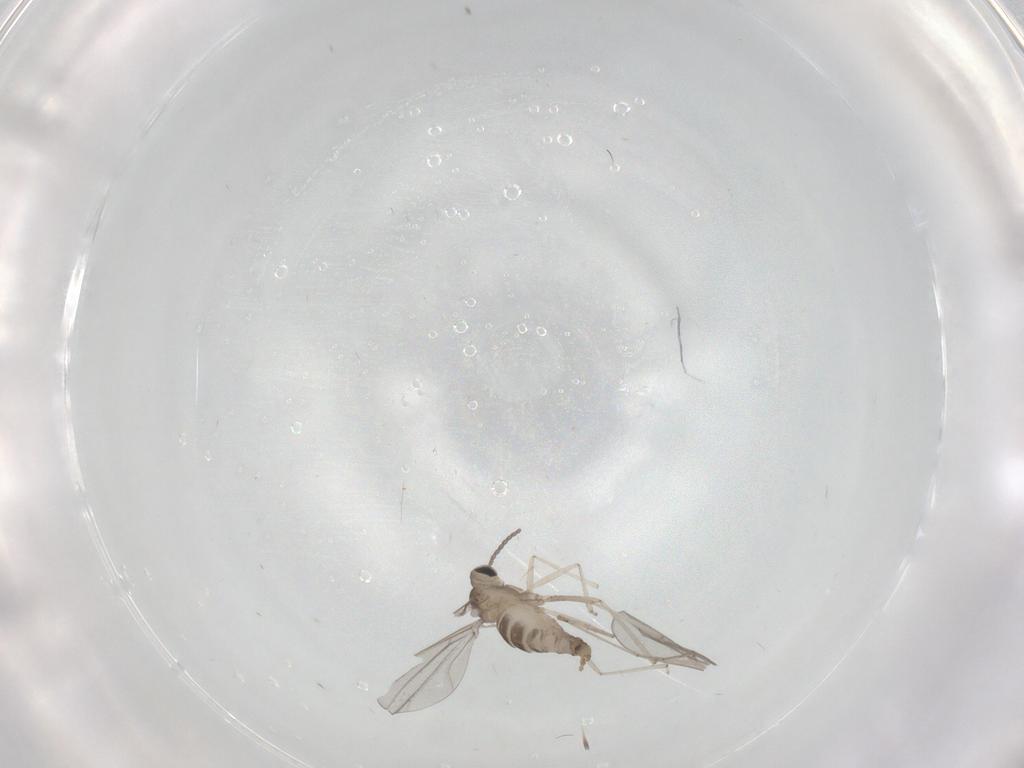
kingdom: Animalia
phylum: Arthropoda
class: Insecta
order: Diptera
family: Cecidomyiidae
